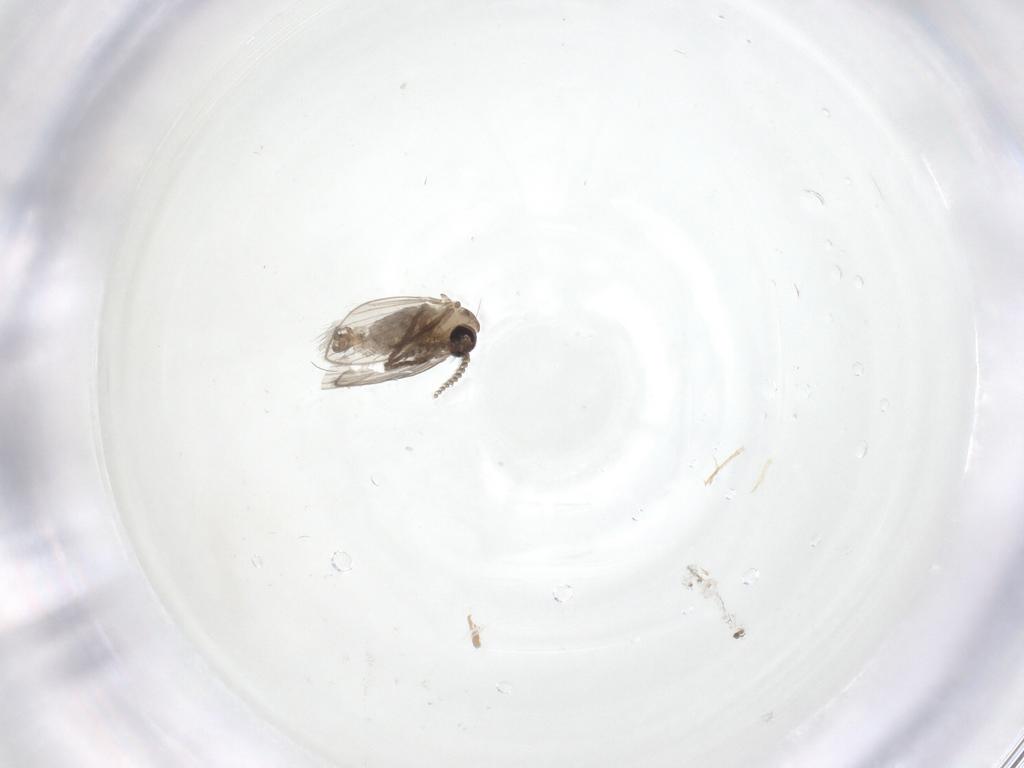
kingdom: Animalia
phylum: Arthropoda
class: Insecta
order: Diptera
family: Psychodidae
